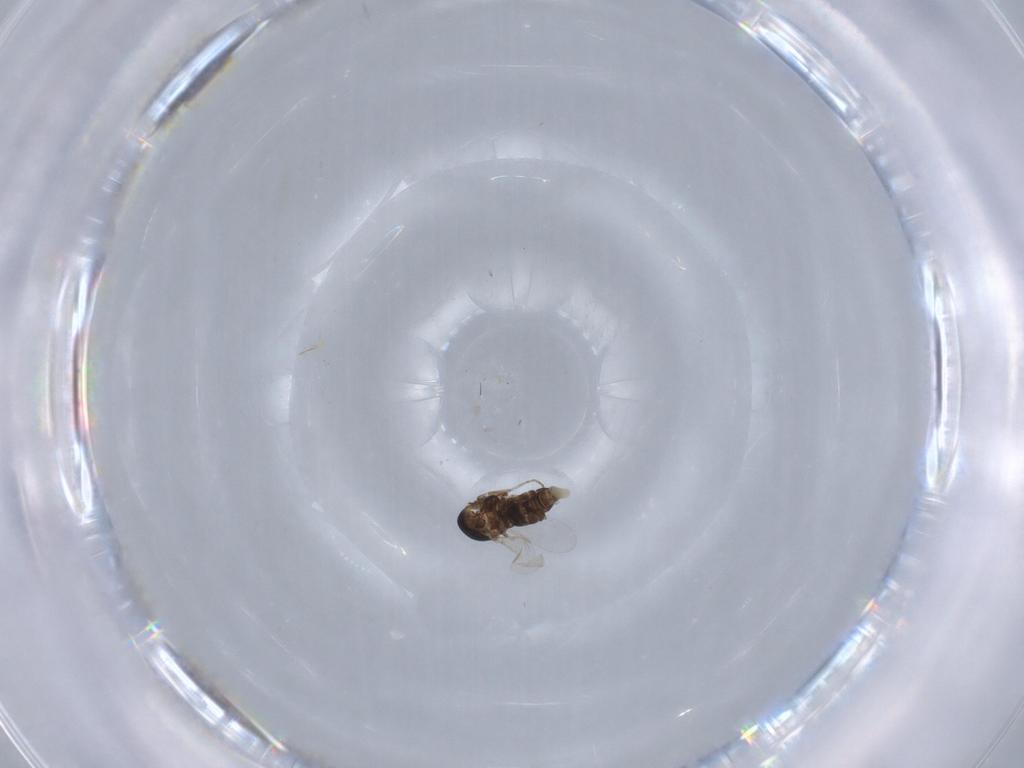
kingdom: Animalia
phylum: Arthropoda
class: Insecta
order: Diptera
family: Ceratopogonidae
